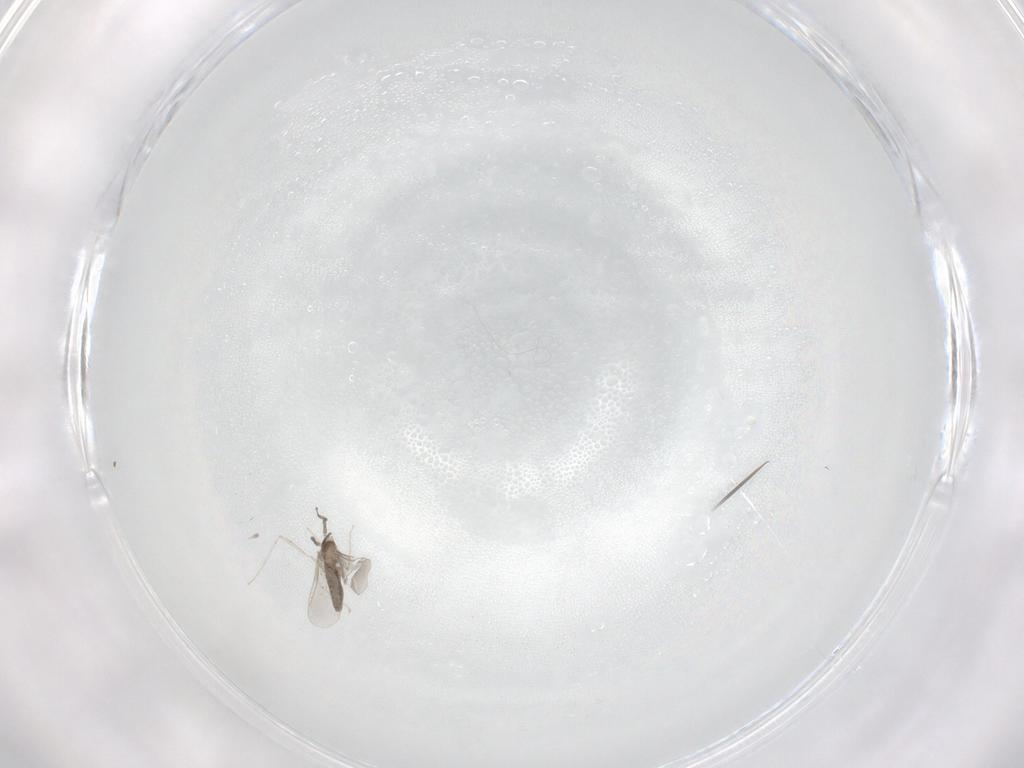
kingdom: Animalia
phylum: Arthropoda
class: Insecta
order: Diptera
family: Cecidomyiidae
